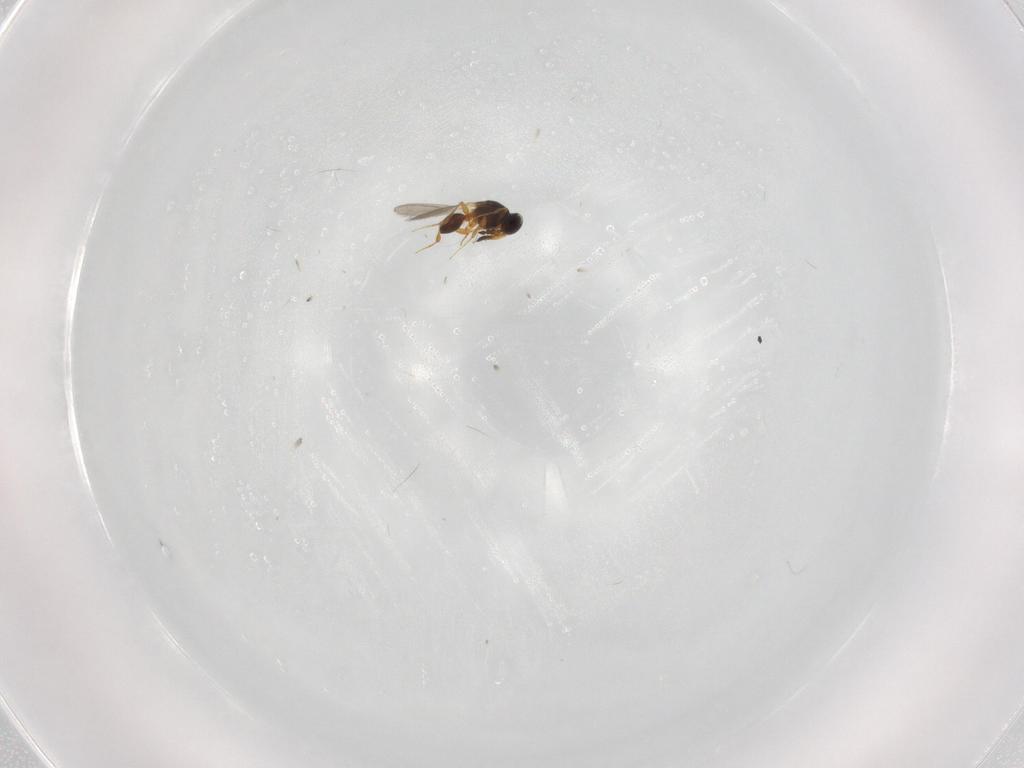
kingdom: Animalia
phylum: Arthropoda
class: Insecta
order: Hymenoptera
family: Platygastridae
